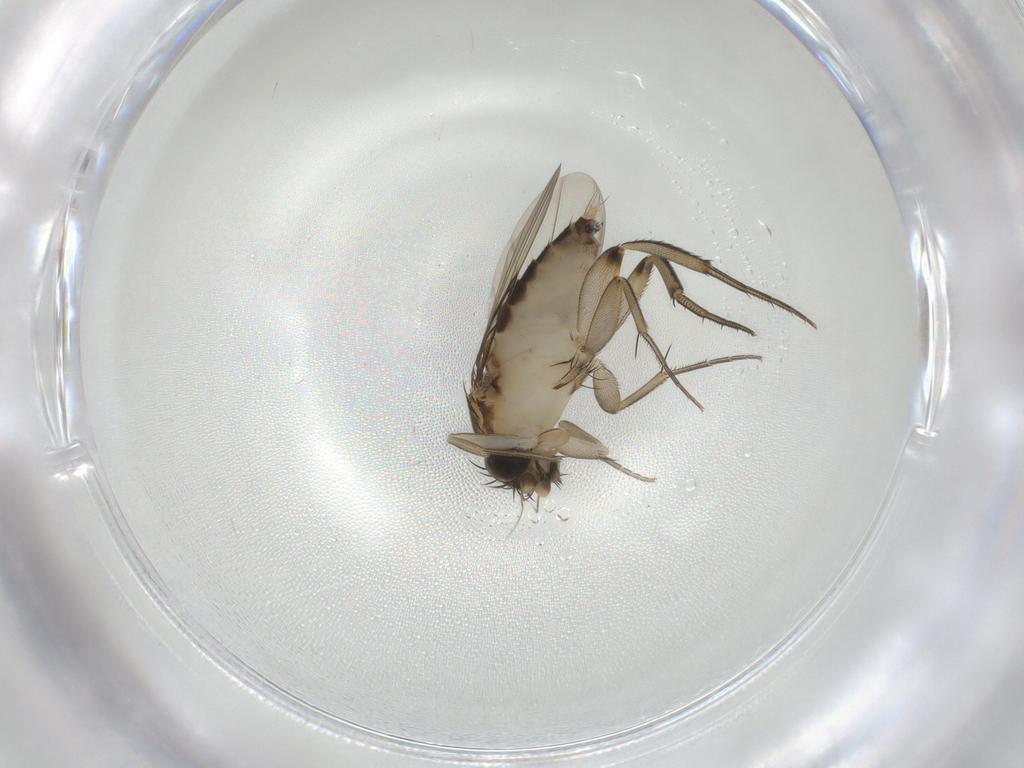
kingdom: Animalia
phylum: Arthropoda
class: Insecta
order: Diptera
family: Phoridae
